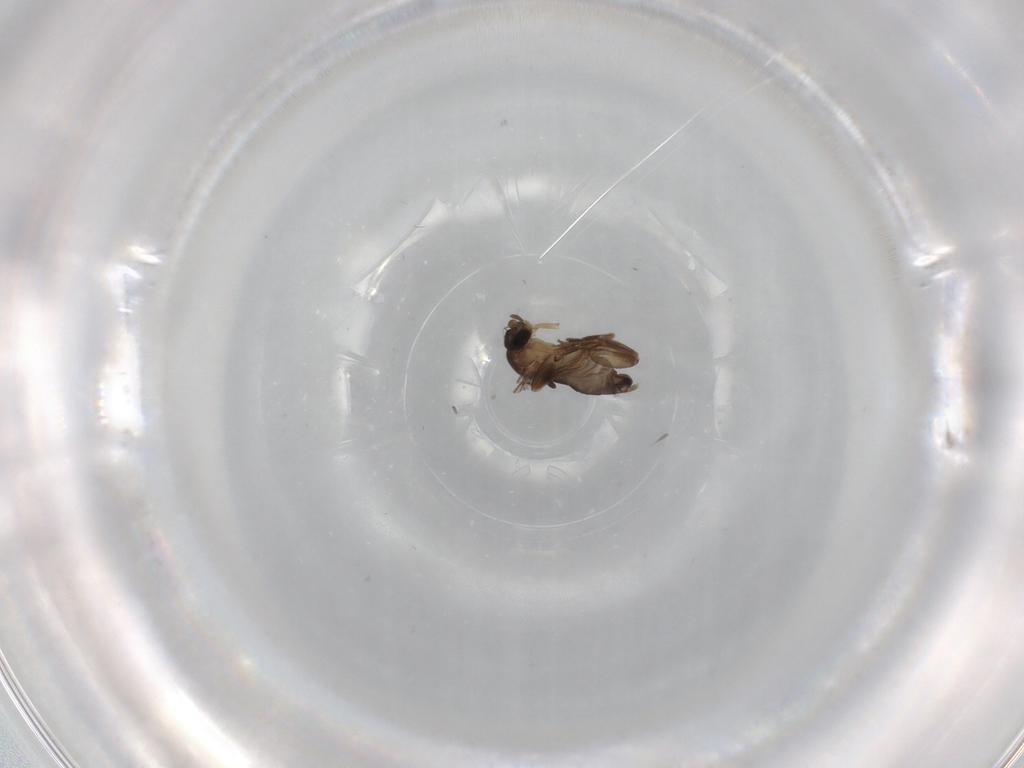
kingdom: Animalia
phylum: Arthropoda
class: Insecta
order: Diptera
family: Phoridae
